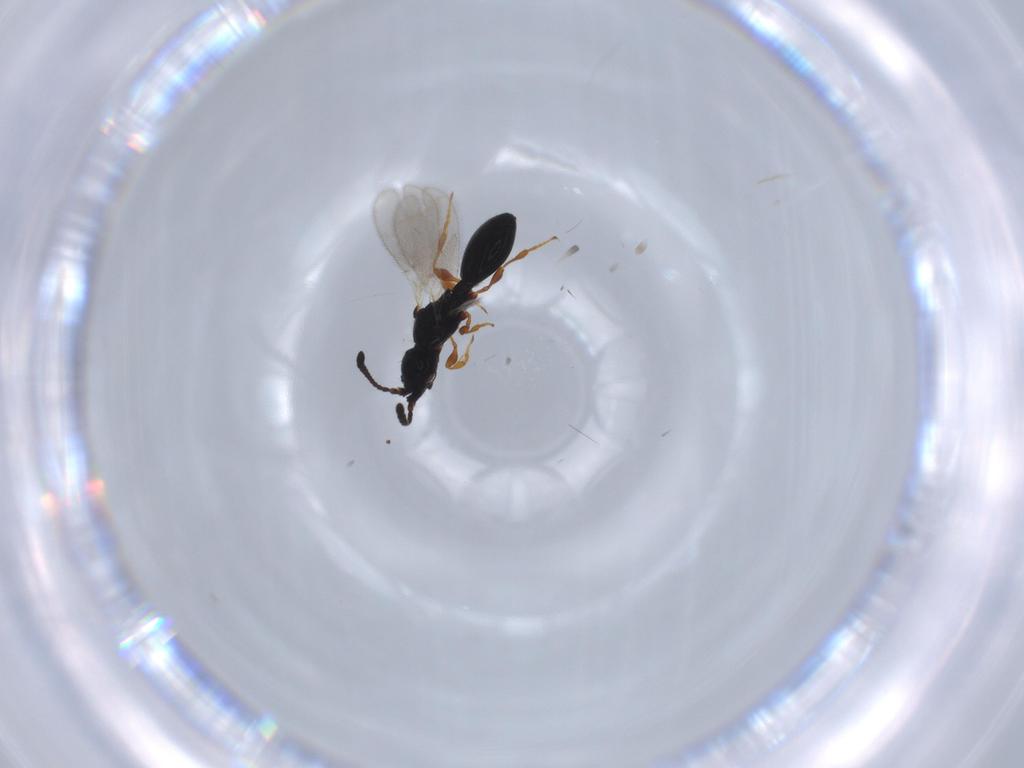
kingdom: Animalia
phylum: Arthropoda
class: Insecta
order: Hymenoptera
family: Diapriidae
